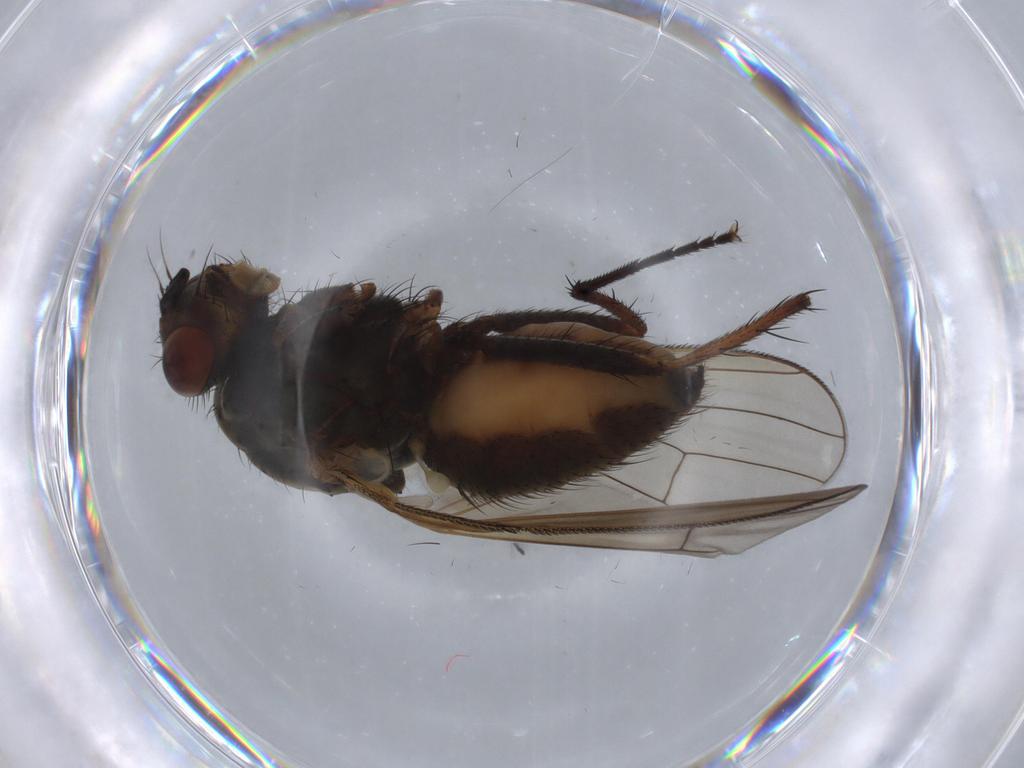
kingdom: Animalia
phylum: Arthropoda
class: Insecta
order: Diptera
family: Anthomyiidae
